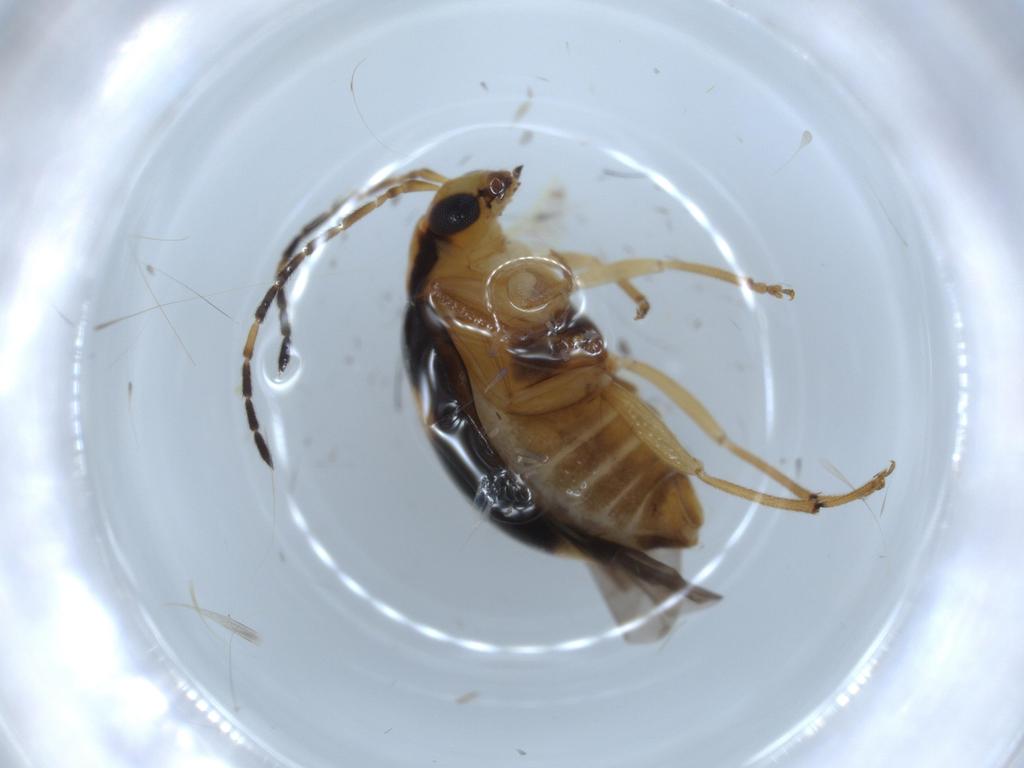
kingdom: Animalia
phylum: Arthropoda
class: Insecta
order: Coleoptera
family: Chrysomelidae
